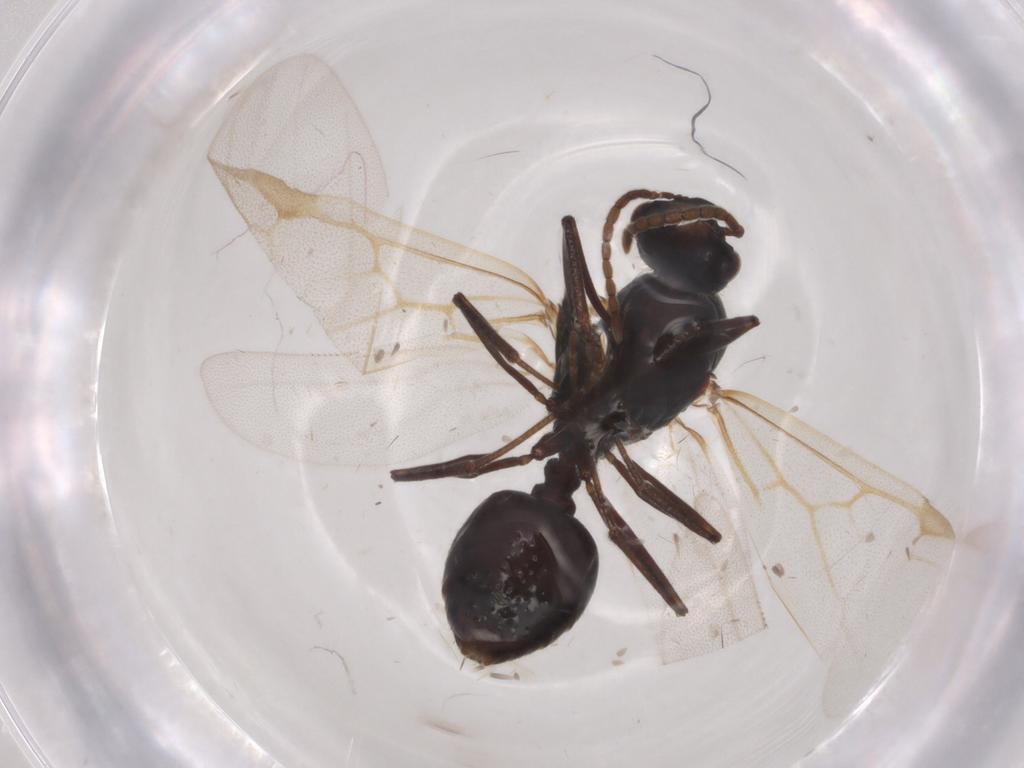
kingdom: Animalia
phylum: Arthropoda
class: Insecta
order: Hymenoptera
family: Formicidae
